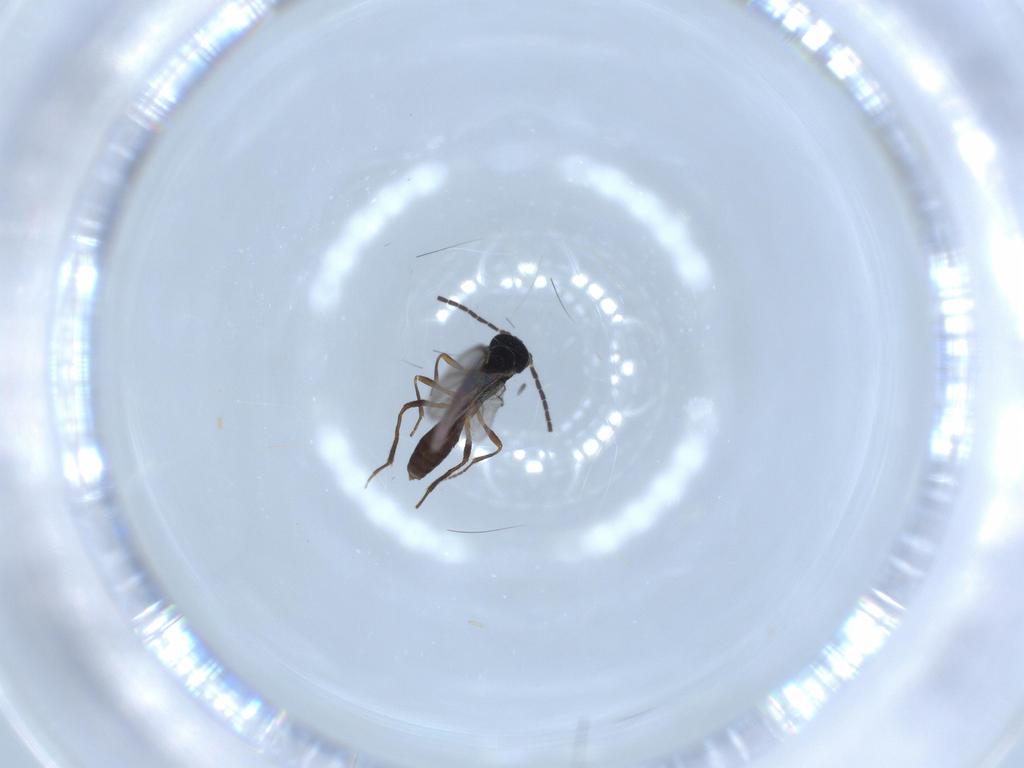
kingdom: Animalia
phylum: Arthropoda
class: Insecta
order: Hymenoptera
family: Braconidae
